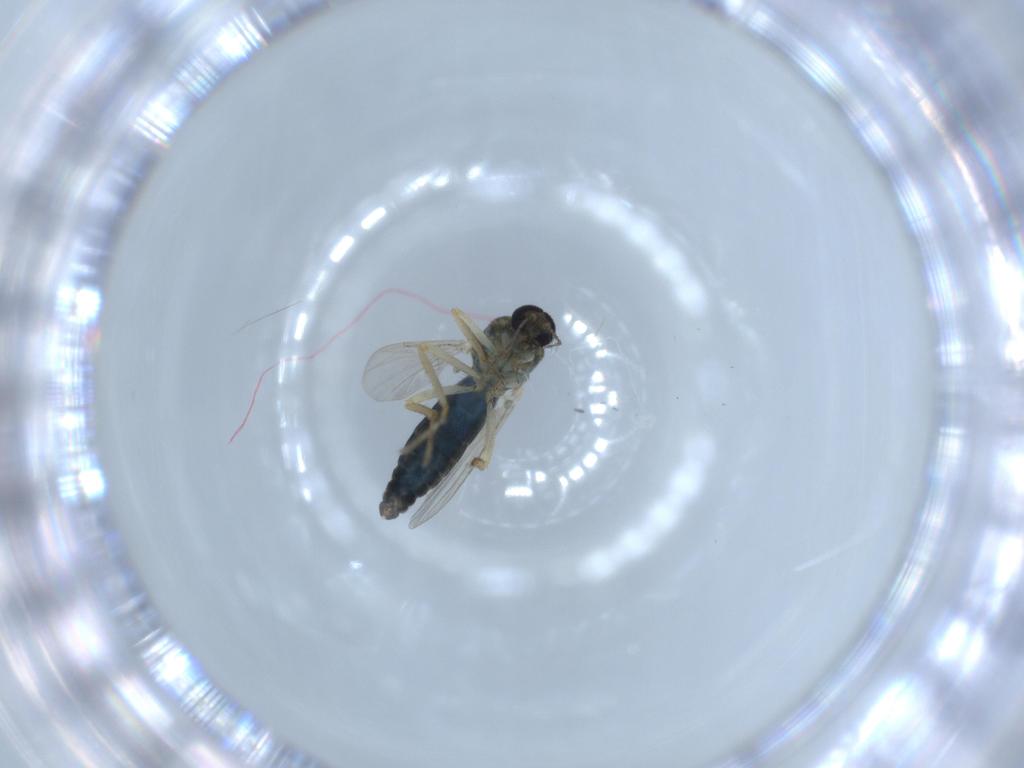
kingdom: Animalia
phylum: Arthropoda
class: Insecta
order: Diptera
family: Ceratopogonidae
